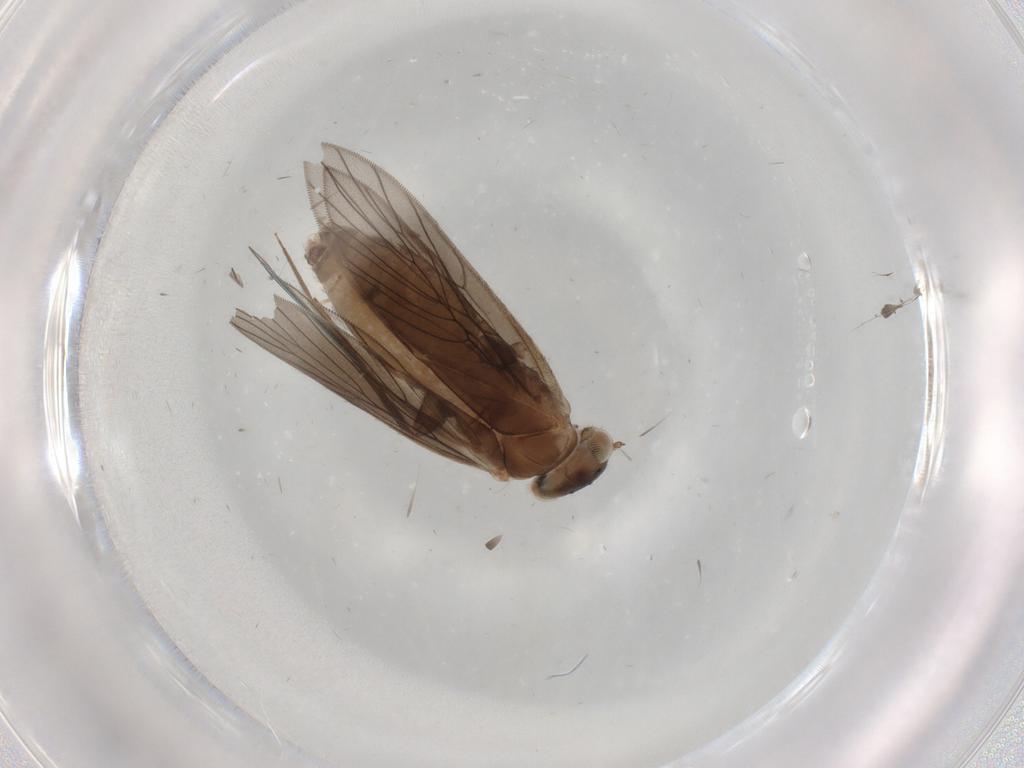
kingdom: Animalia
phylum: Arthropoda
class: Insecta
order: Psocodea
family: Lepidopsocidae
